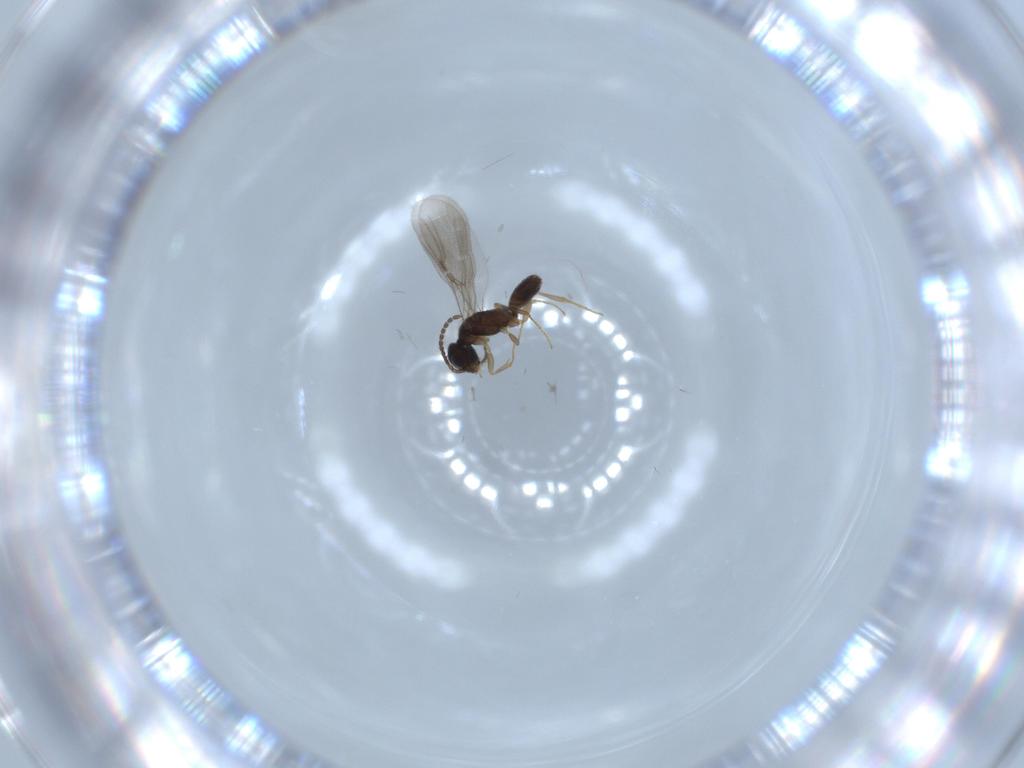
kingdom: Animalia
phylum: Arthropoda
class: Insecta
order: Hymenoptera
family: Bethylidae
